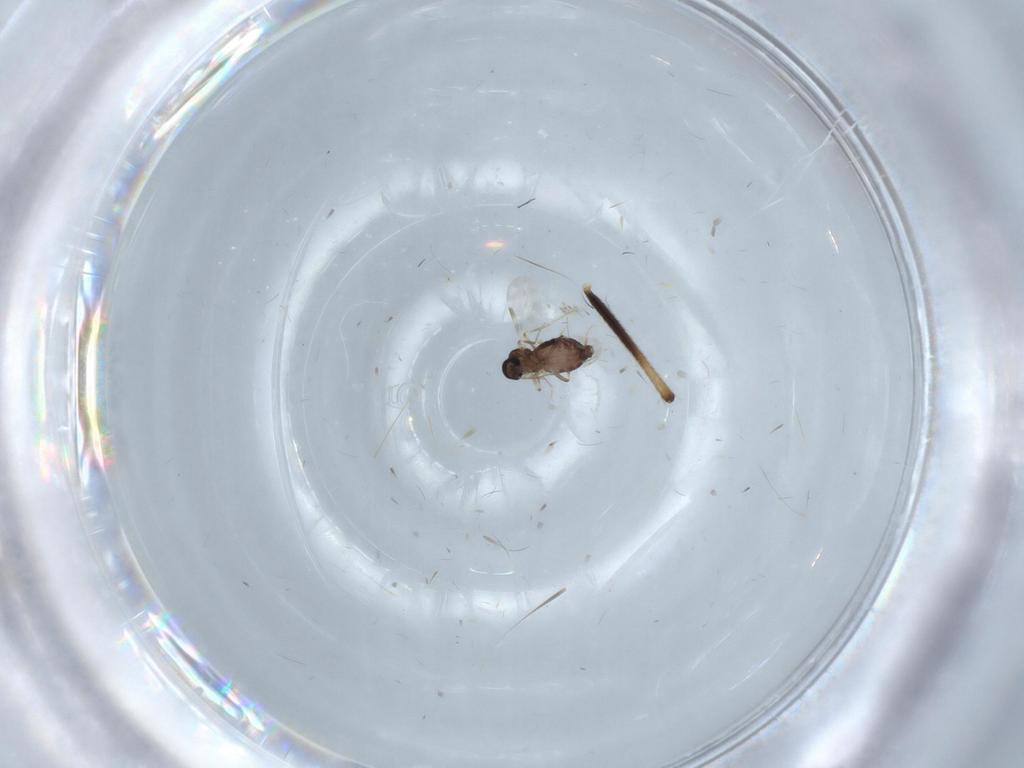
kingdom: Animalia
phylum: Arthropoda
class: Insecta
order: Diptera
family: Ceratopogonidae
